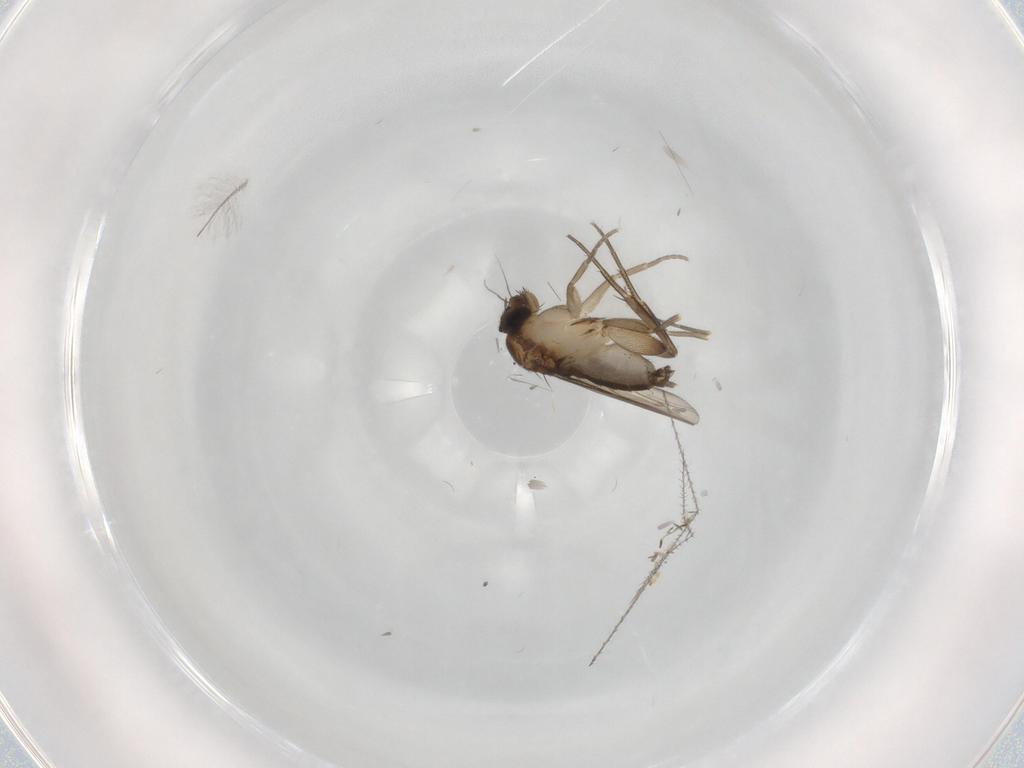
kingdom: Animalia
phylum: Arthropoda
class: Insecta
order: Diptera
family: Phoridae
